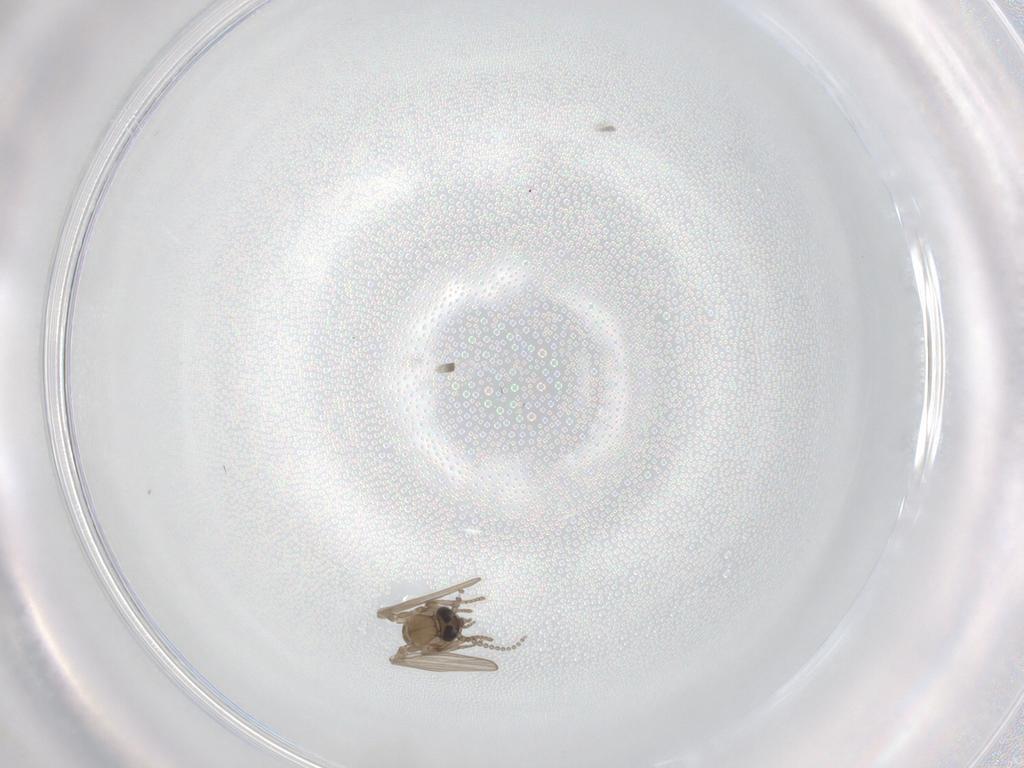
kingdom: Animalia
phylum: Arthropoda
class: Insecta
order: Diptera
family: Psychodidae
